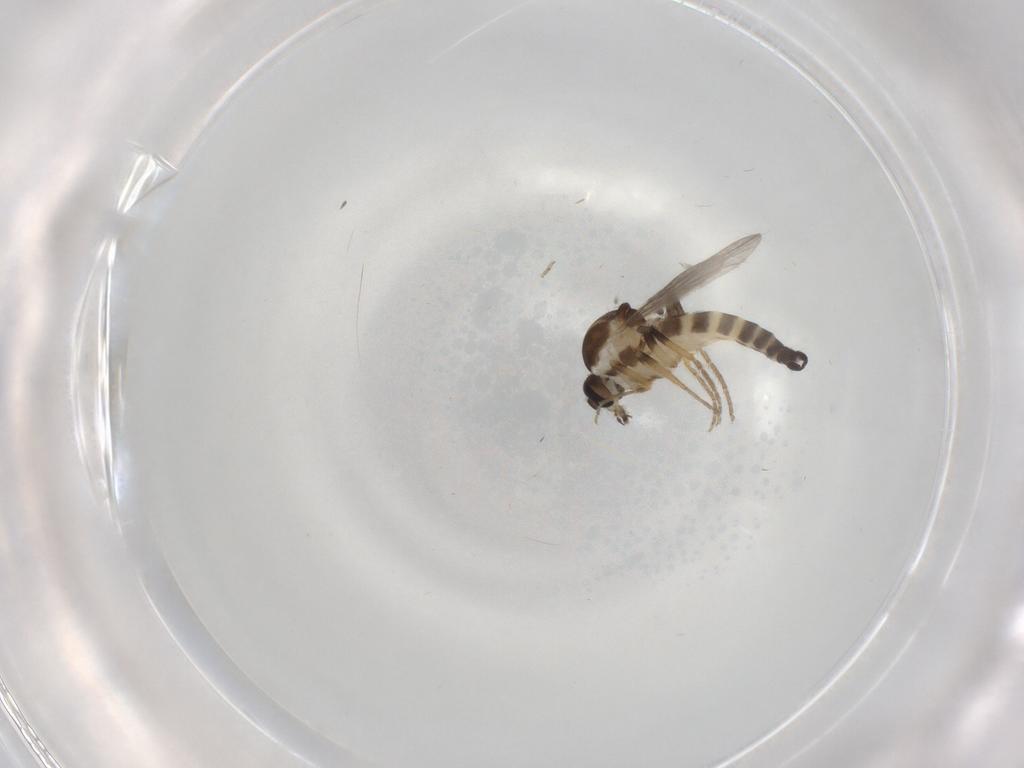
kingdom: Animalia
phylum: Arthropoda
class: Insecta
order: Diptera
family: Ceratopogonidae
